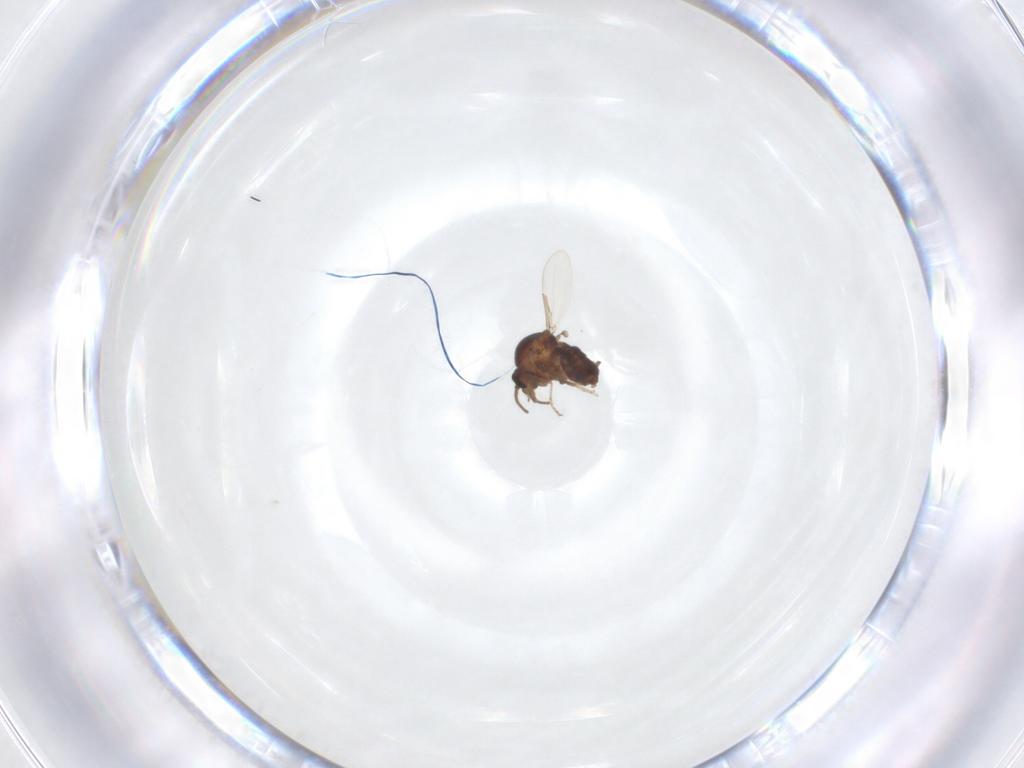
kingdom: Animalia
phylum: Arthropoda
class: Insecta
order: Diptera
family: Ceratopogonidae
